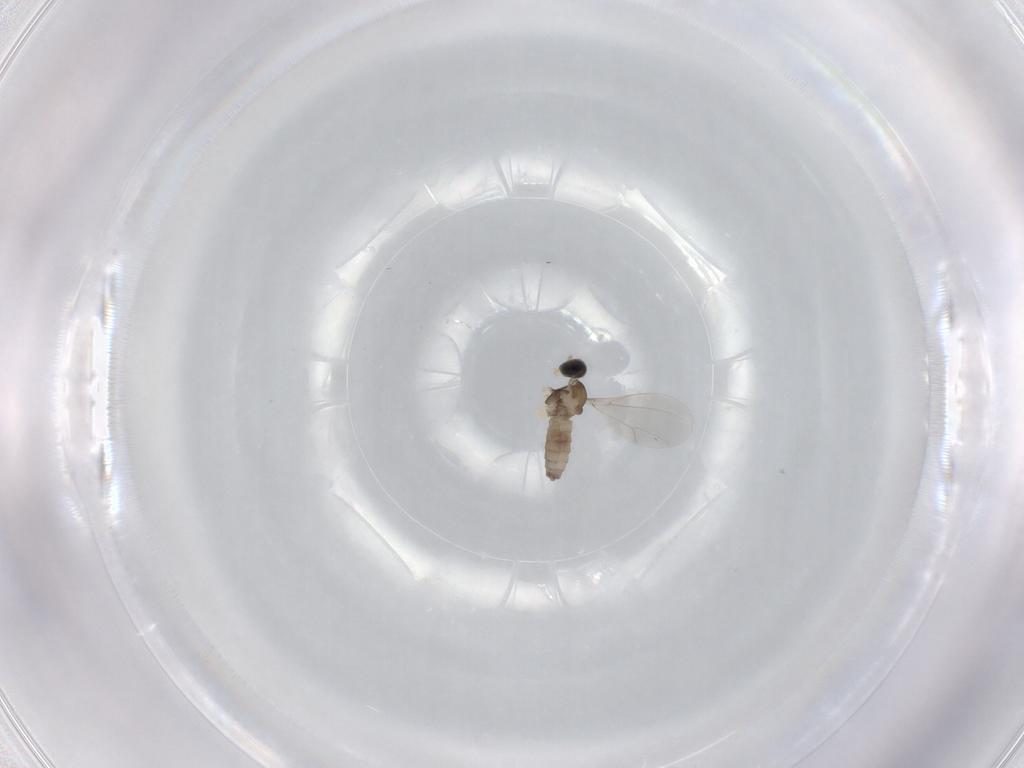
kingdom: Animalia
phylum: Arthropoda
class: Insecta
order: Diptera
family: Cecidomyiidae
